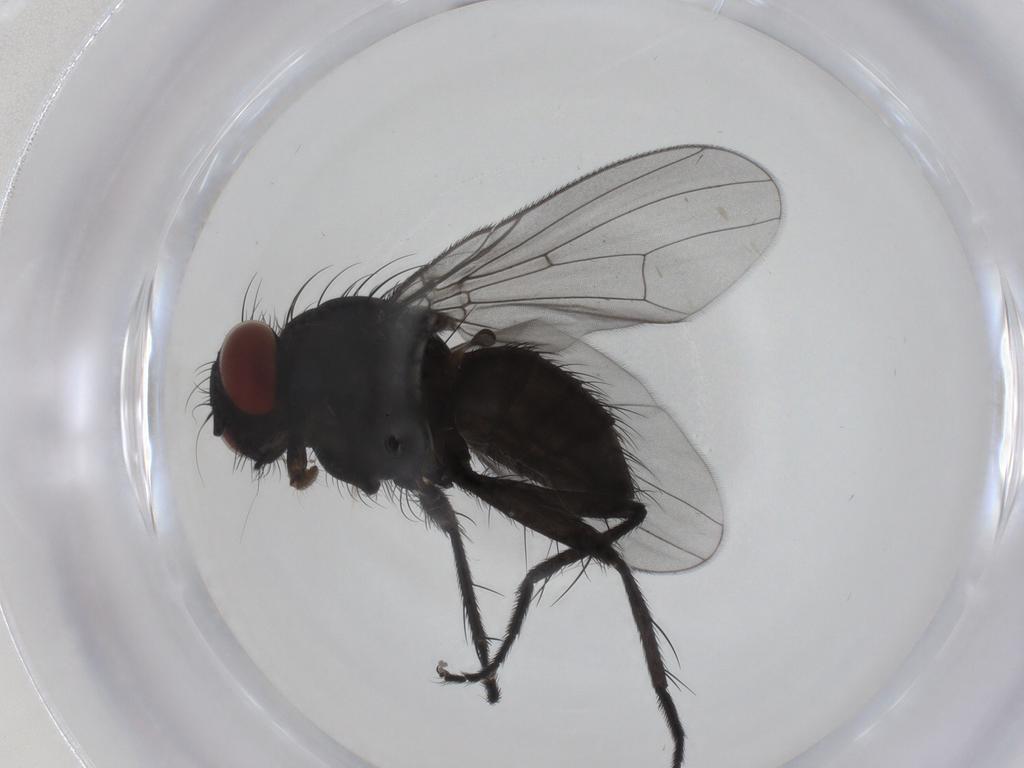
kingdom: Animalia
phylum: Arthropoda
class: Insecta
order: Diptera
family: Muscidae
